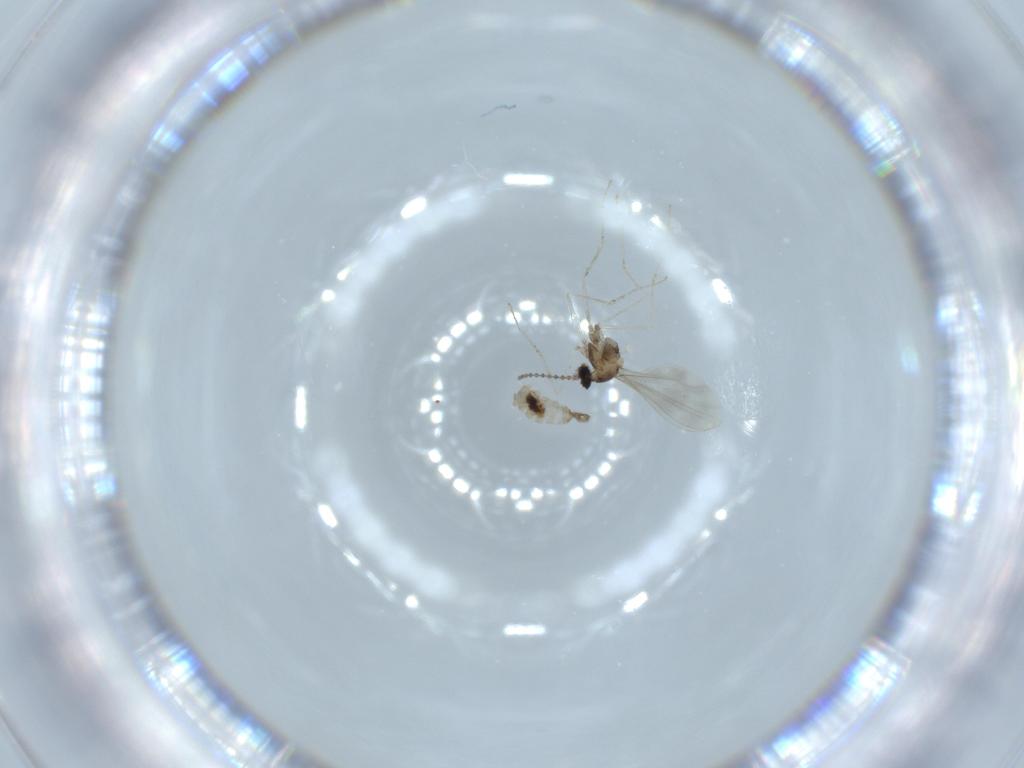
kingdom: Animalia
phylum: Arthropoda
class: Insecta
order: Diptera
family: Cecidomyiidae
